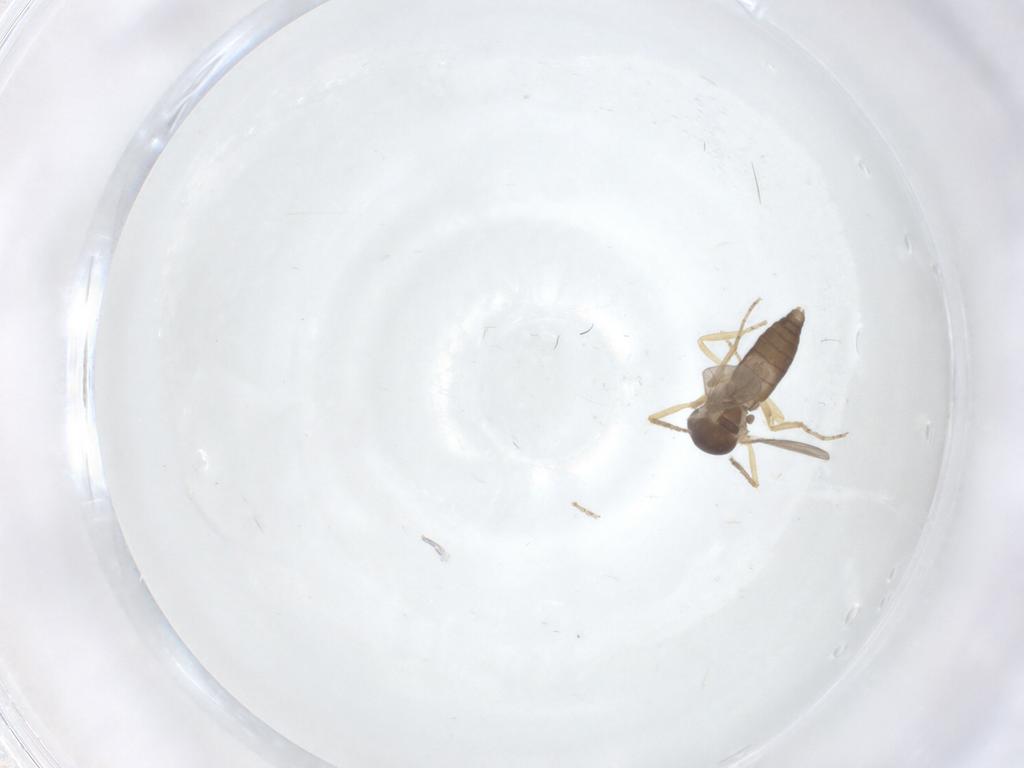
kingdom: Animalia
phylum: Arthropoda
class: Insecta
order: Diptera
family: Ceratopogonidae
